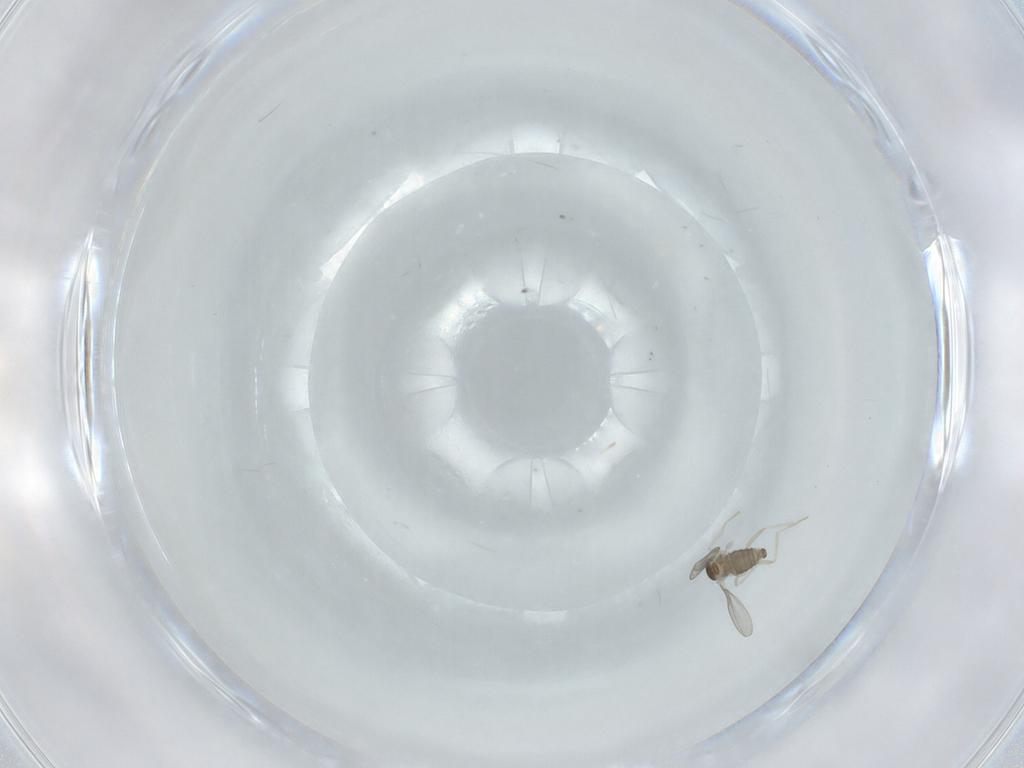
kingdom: Animalia
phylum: Arthropoda
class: Insecta
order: Diptera
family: Cecidomyiidae
